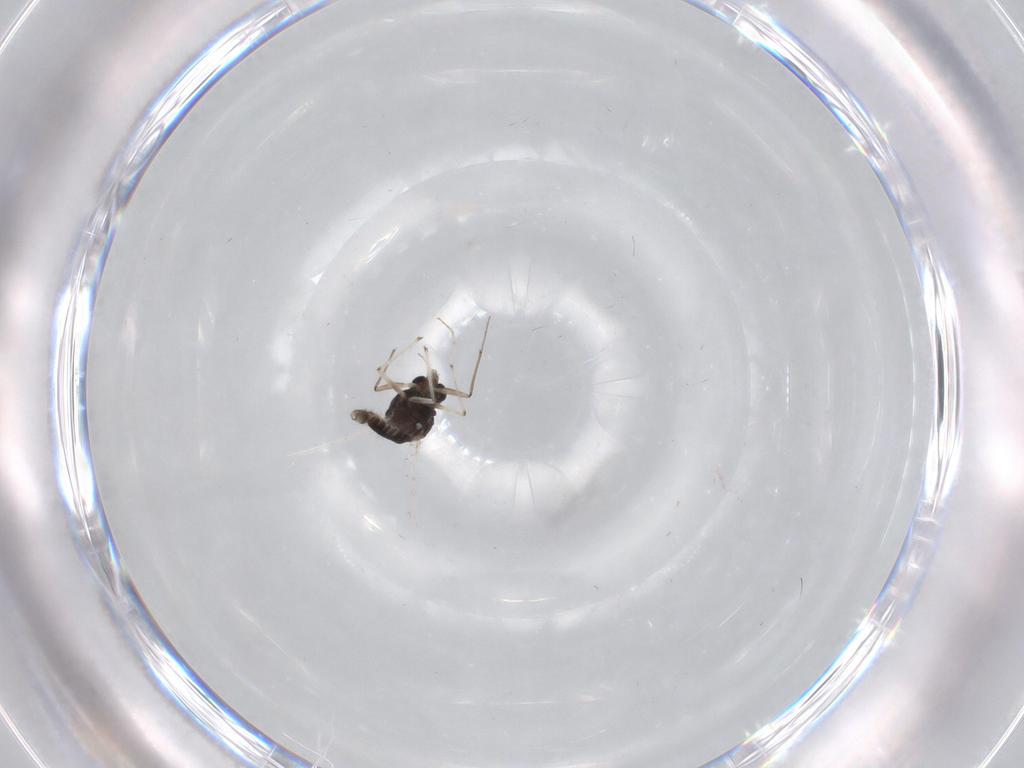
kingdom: Animalia
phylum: Arthropoda
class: Insecta
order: Diptera
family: Chironomidae
